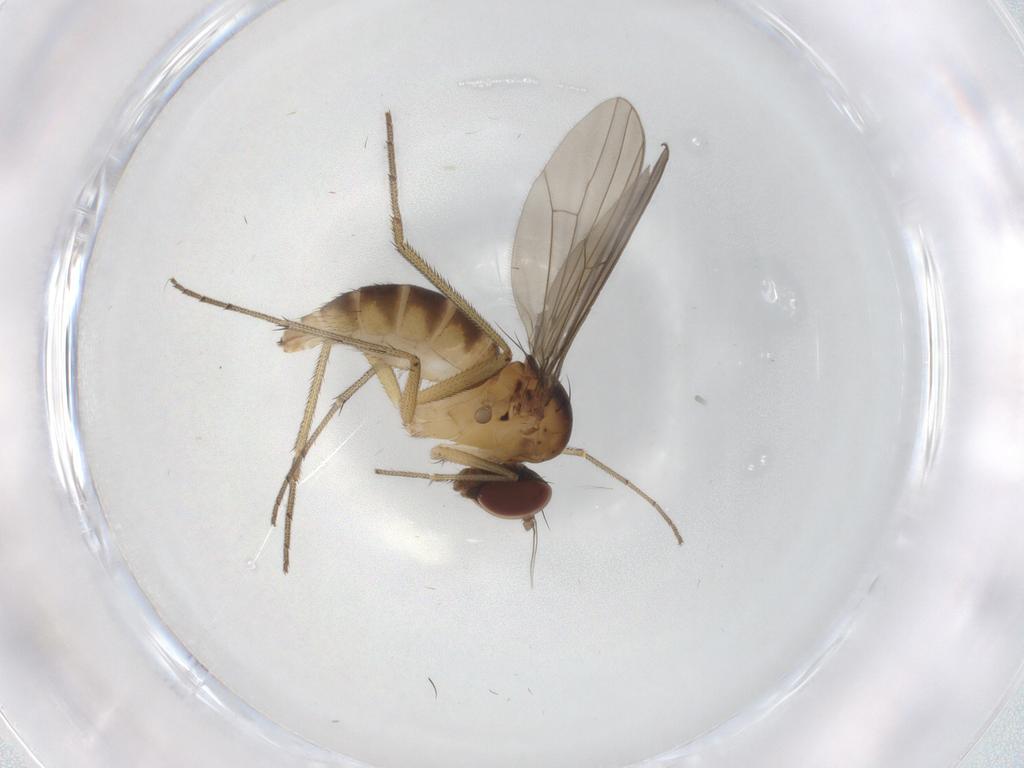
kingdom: Animalia
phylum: Arthropoda
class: Insecta
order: Diptera
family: Dolichopodidae
